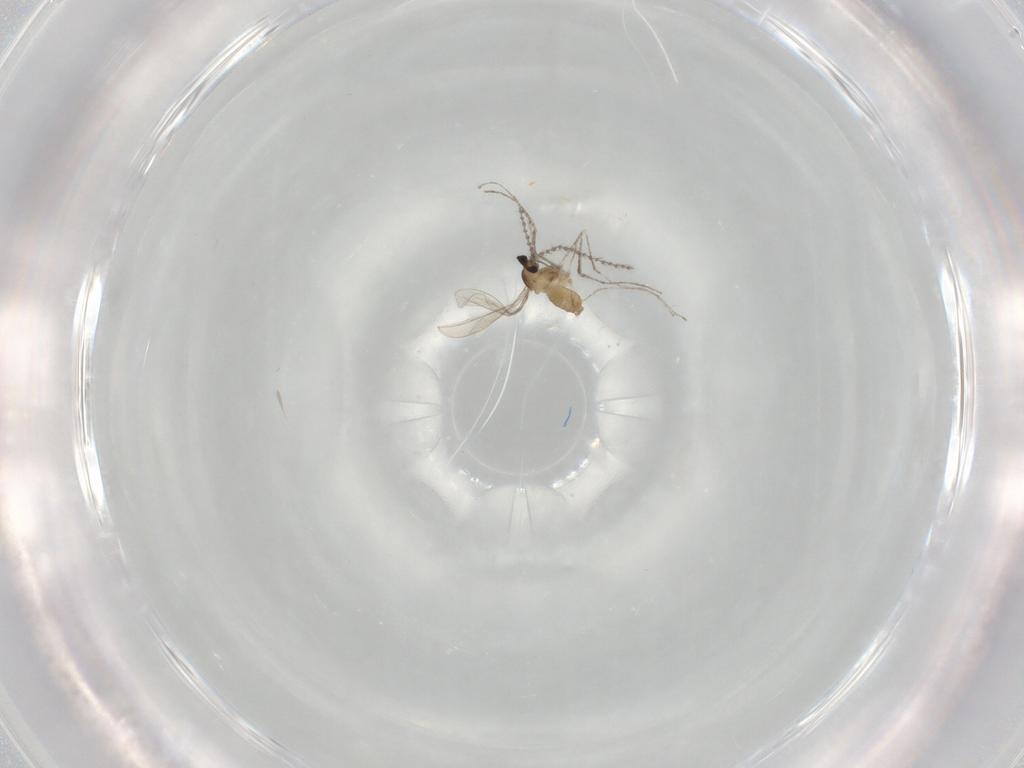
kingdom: Animalia
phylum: Arthropoda
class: Insecta
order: Diptera
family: Cecidomyiidae
